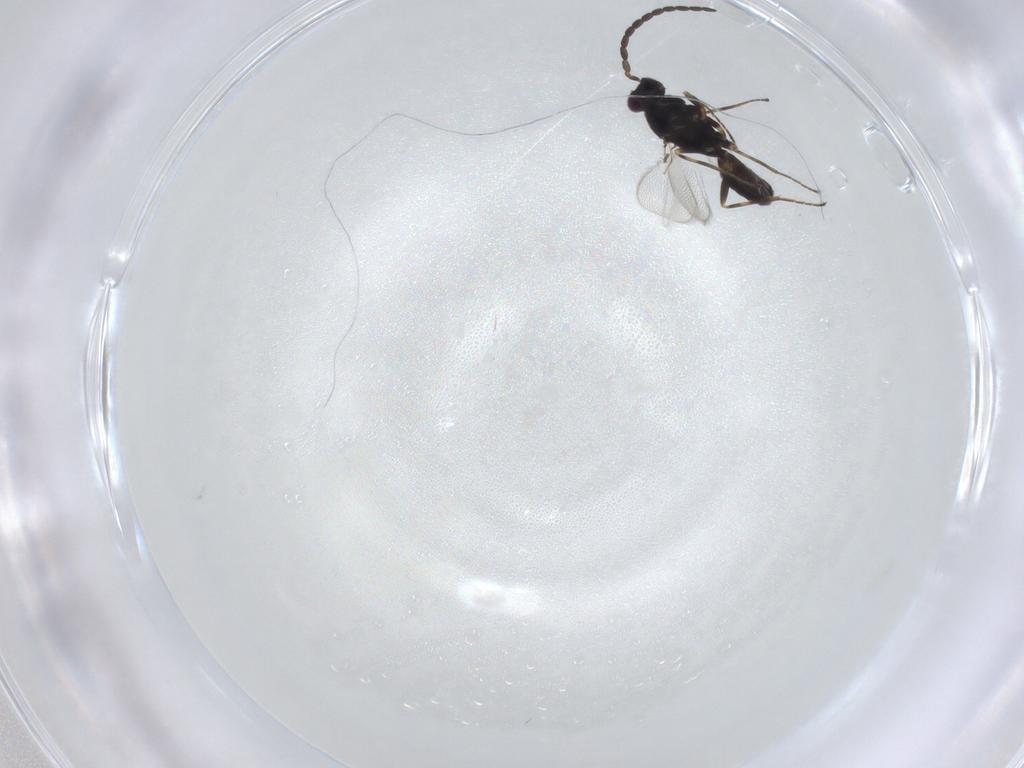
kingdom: Animalia
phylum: Arthropoda
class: Insecta
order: Hymenoptera
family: Mymaridae
